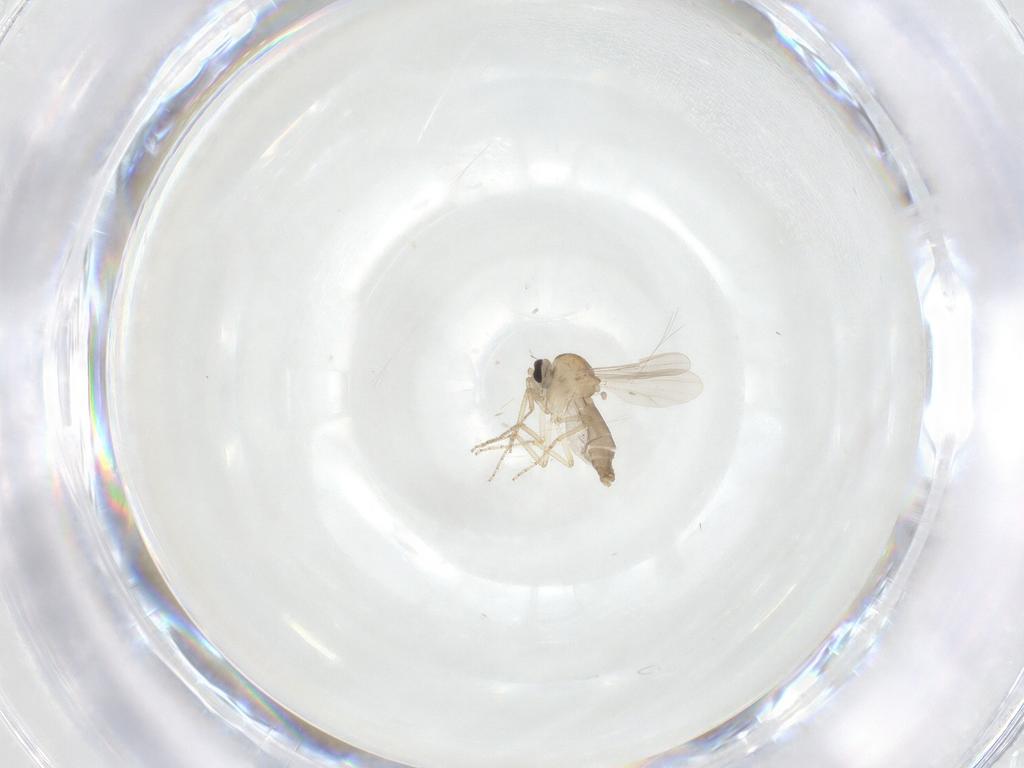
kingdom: Animalia
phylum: Arthropoda
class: Insecta
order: Diptera
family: Ceratopogonidae
